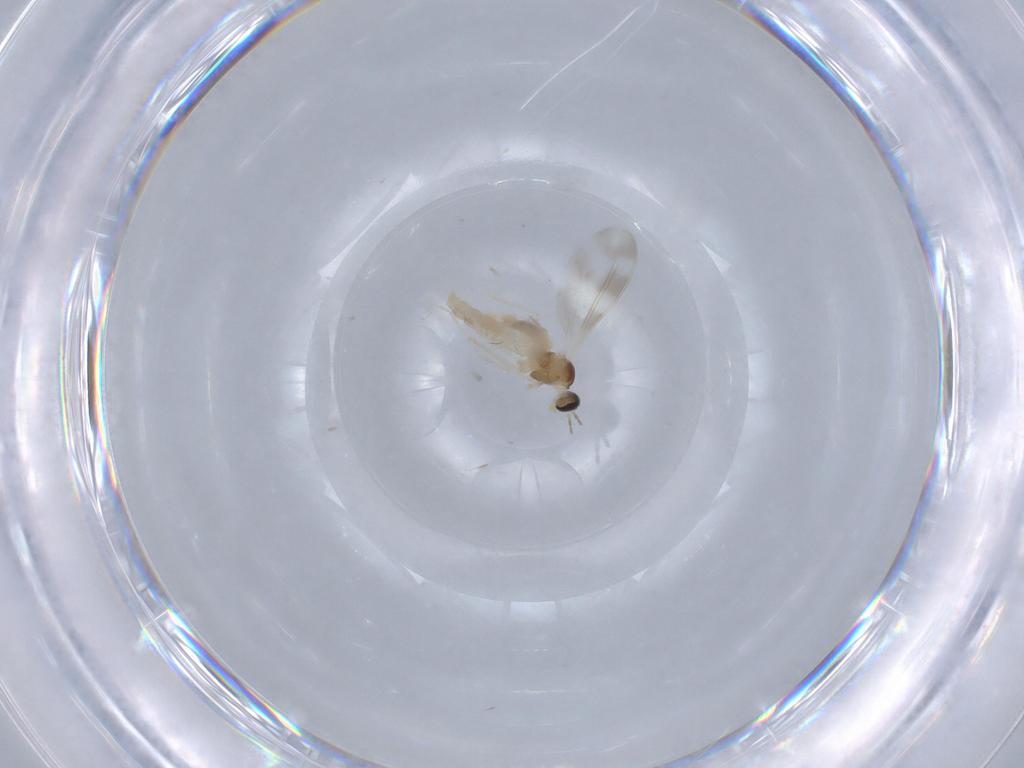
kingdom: Animalia
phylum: Arthropoda
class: Insecta
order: Diptera
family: Cecidomyiidae
